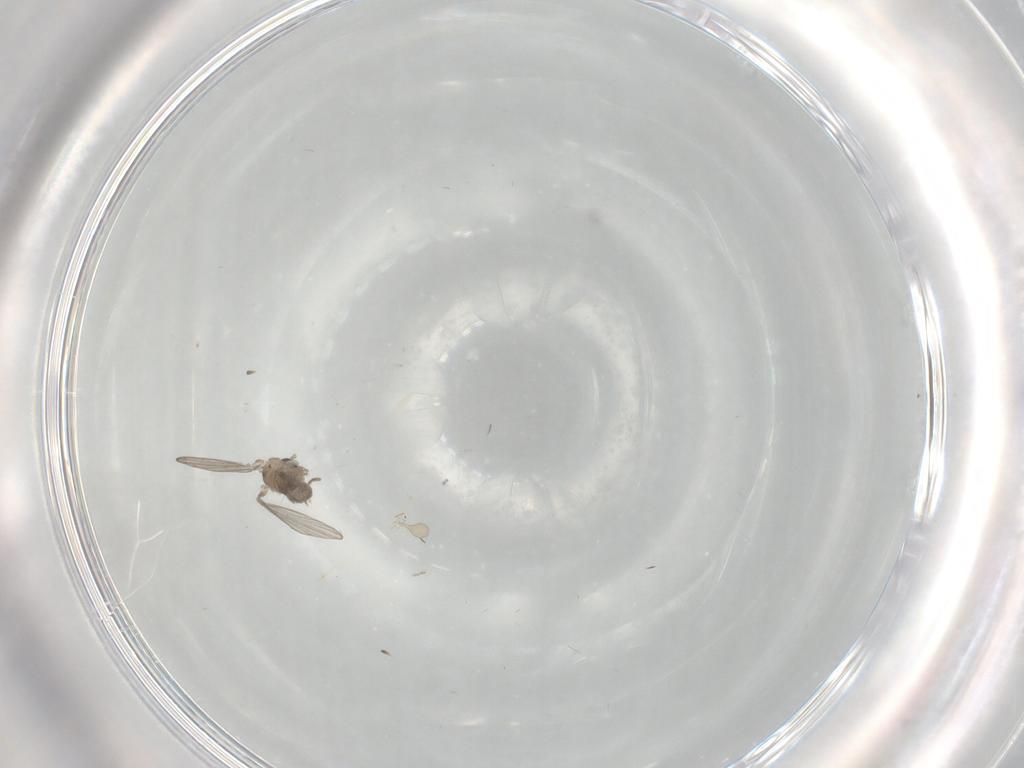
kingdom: Animalia
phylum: Arthropoda
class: Insecta
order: Diptera
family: Psychodidae
